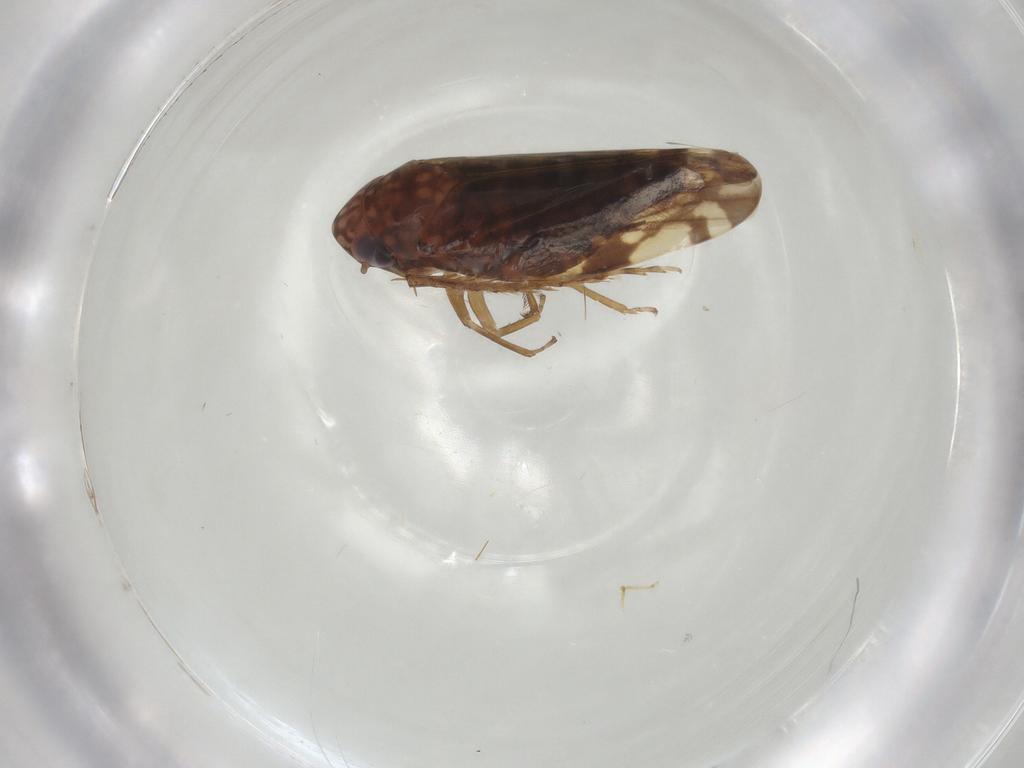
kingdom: Animalia
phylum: Arthropoda
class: Insecta
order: Hemiptera
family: Cicadellidae
